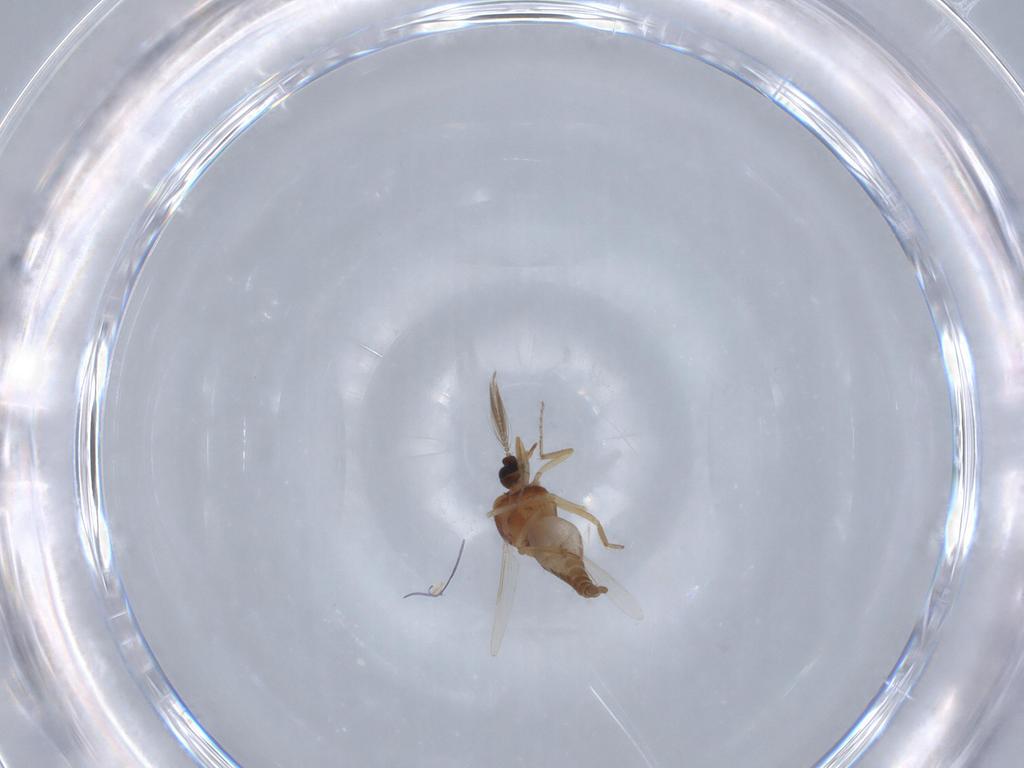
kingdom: Animalia
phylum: Arthropoda
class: Insecta
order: Diptera
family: Ceratopogonidae
